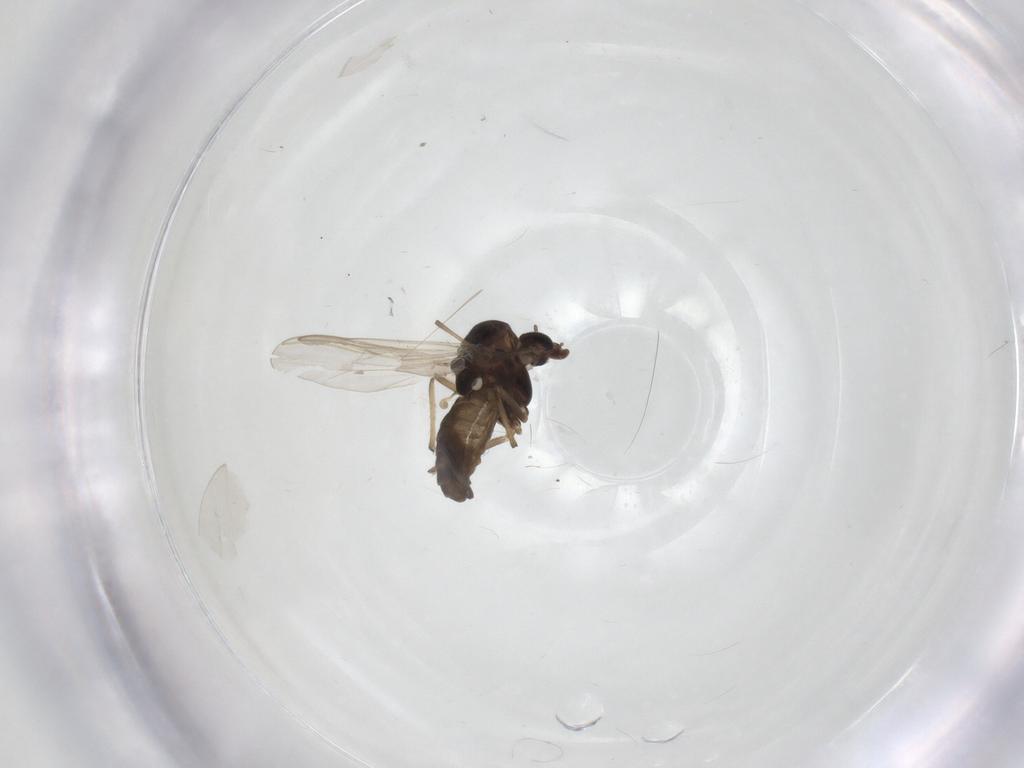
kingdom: Animalia
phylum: Arthropoda
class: Insecta
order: Diptera
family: Chironomidae
